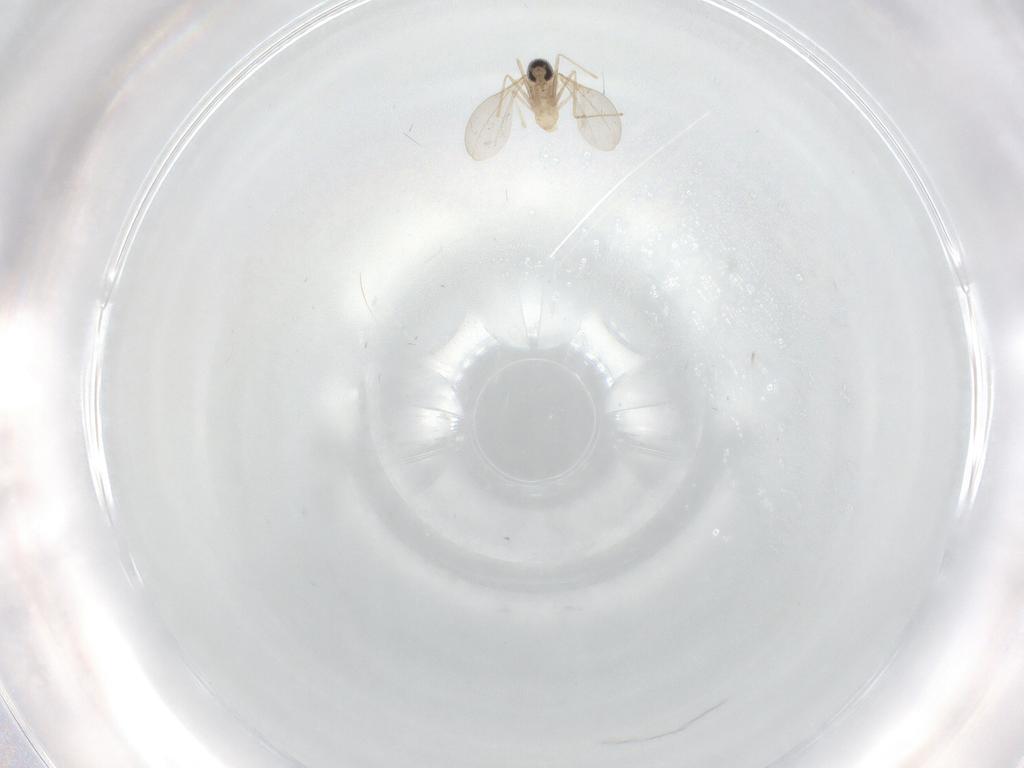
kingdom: Animalia
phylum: Arthropoda
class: Insecta
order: Diptera
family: Cecidomyiidae
